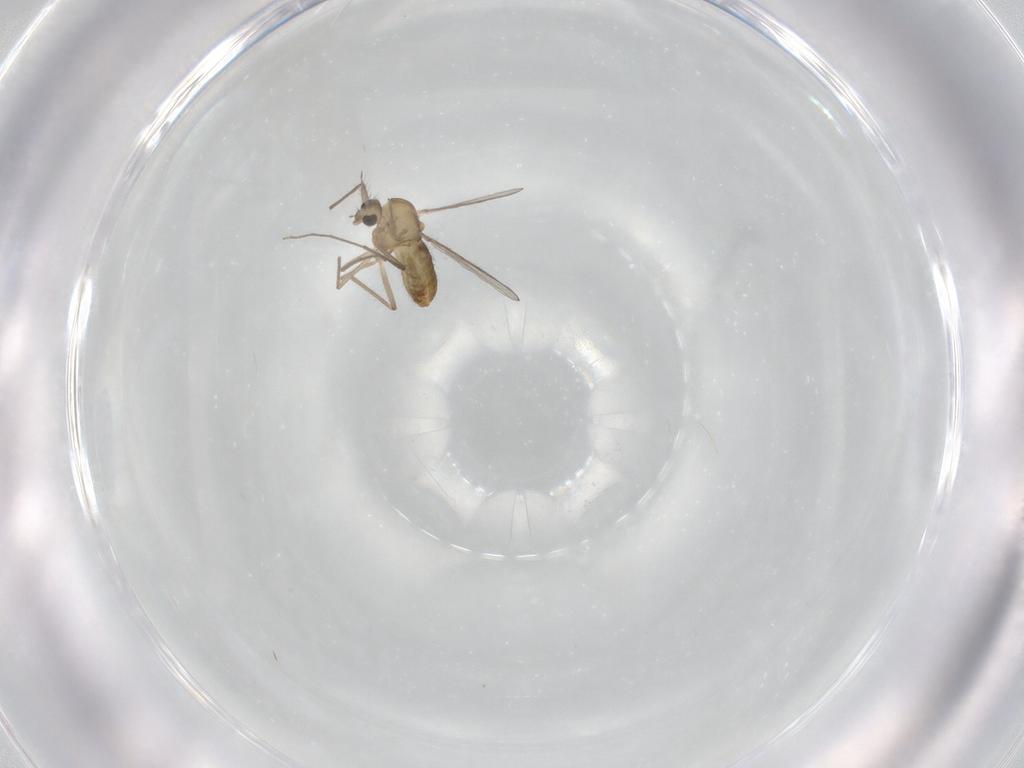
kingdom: Animalia
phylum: Arthropoda
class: Insecta
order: Diptera
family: Chironomidae
